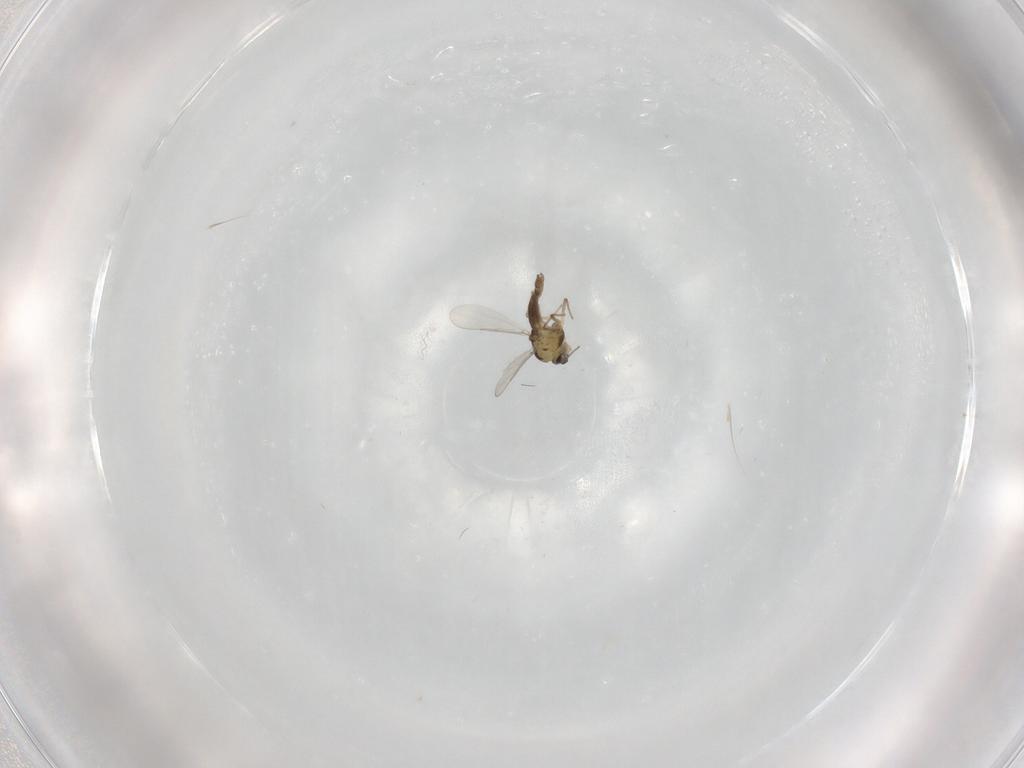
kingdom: Animalia
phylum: Arthropoda
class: Insecta
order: Diptera
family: Chironomidae
